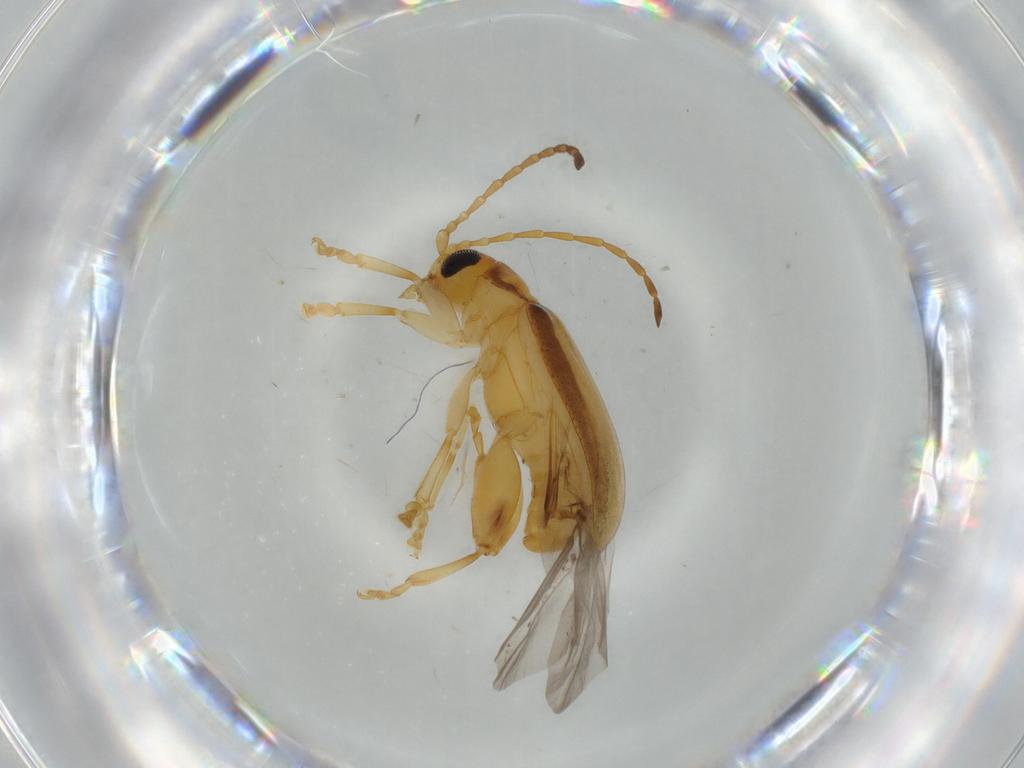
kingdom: Animalia
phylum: Arthropoda
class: Insecta
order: Coleoptera
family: Chrysomelidae
